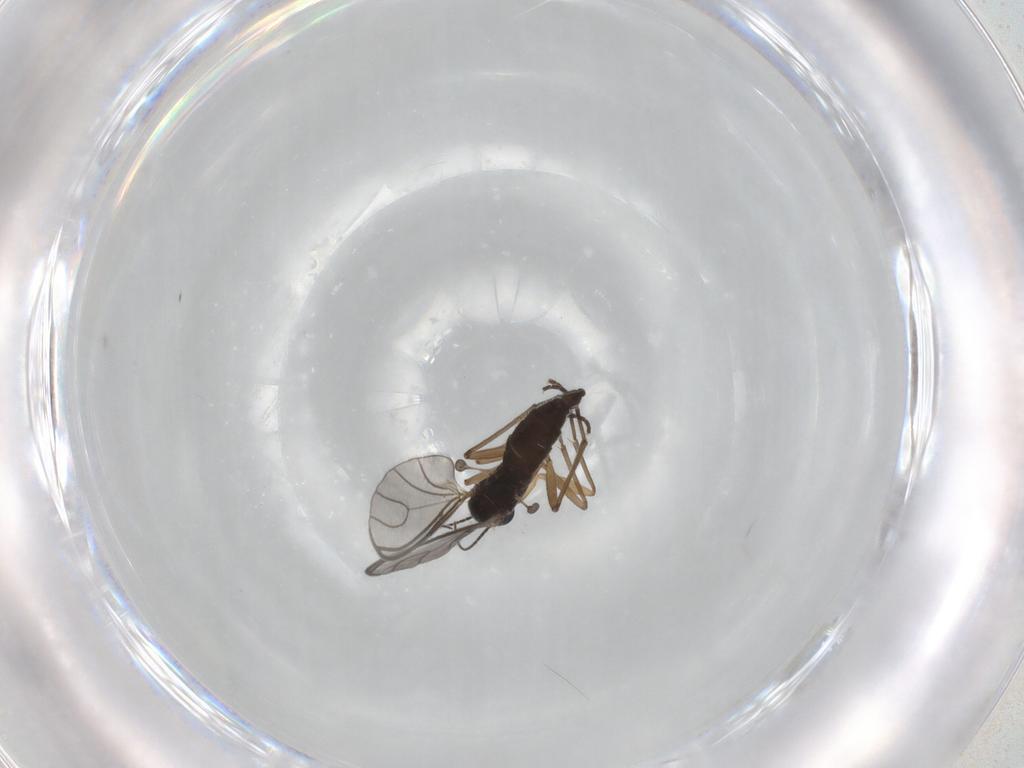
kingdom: Animalia
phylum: Arthropoda
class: Insecta
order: Diptera
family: Sciaridae
